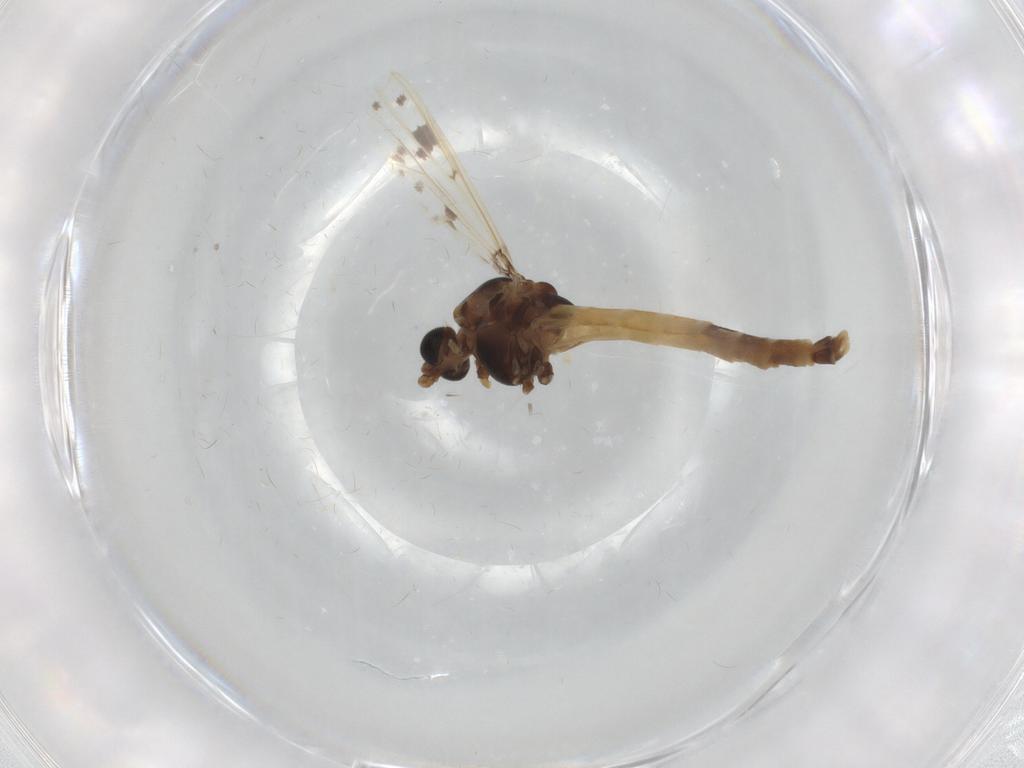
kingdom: Animalia
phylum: Arthropoda
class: Insecta
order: Diptera
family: Chironomidae
